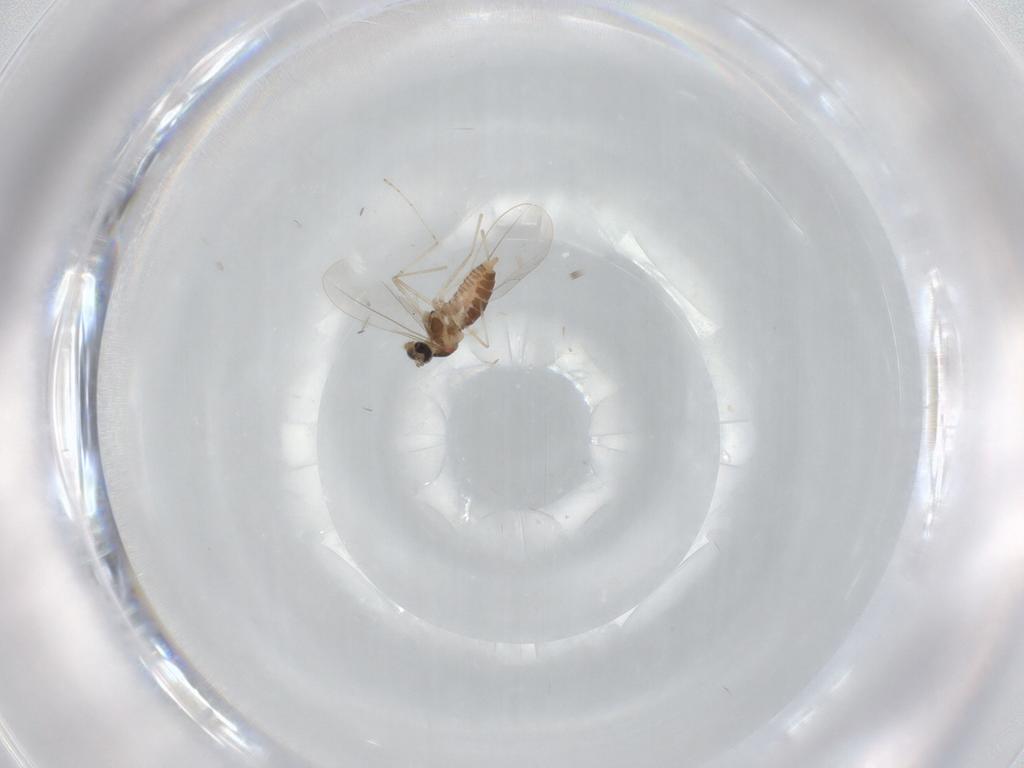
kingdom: Animalia
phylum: Arthropoda
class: Insecta
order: Diptera
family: Cecidomyiidae
